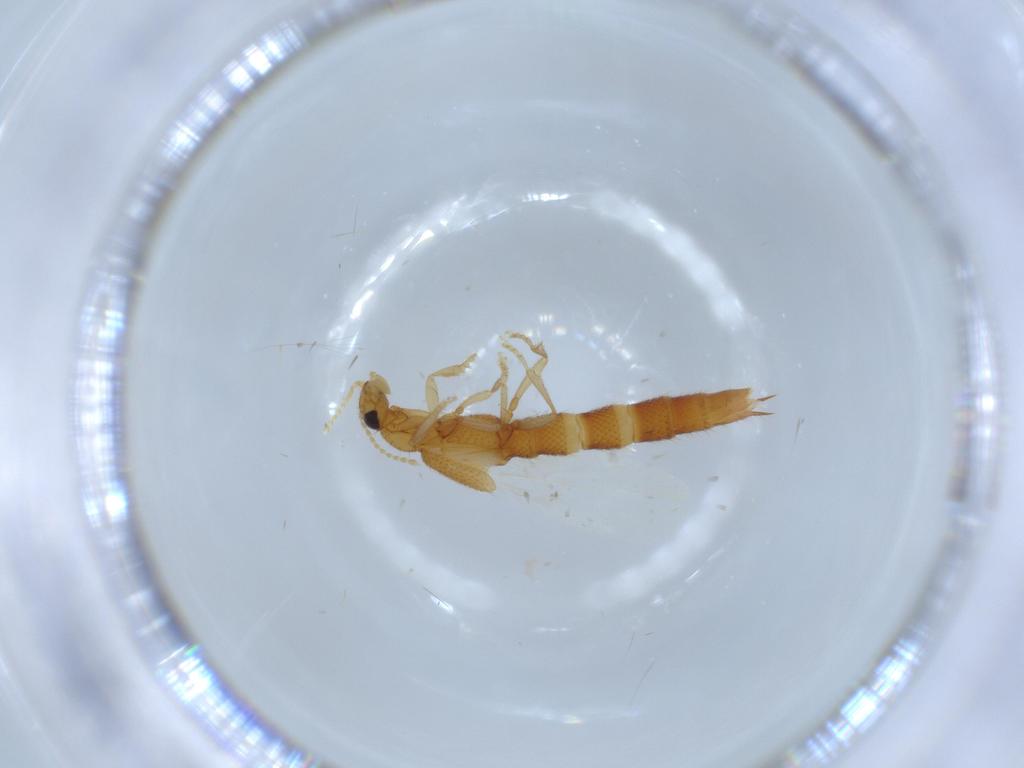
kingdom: Animalia
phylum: Arthropoda
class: Insecta
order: Coleoptera
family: Staphylinidae
